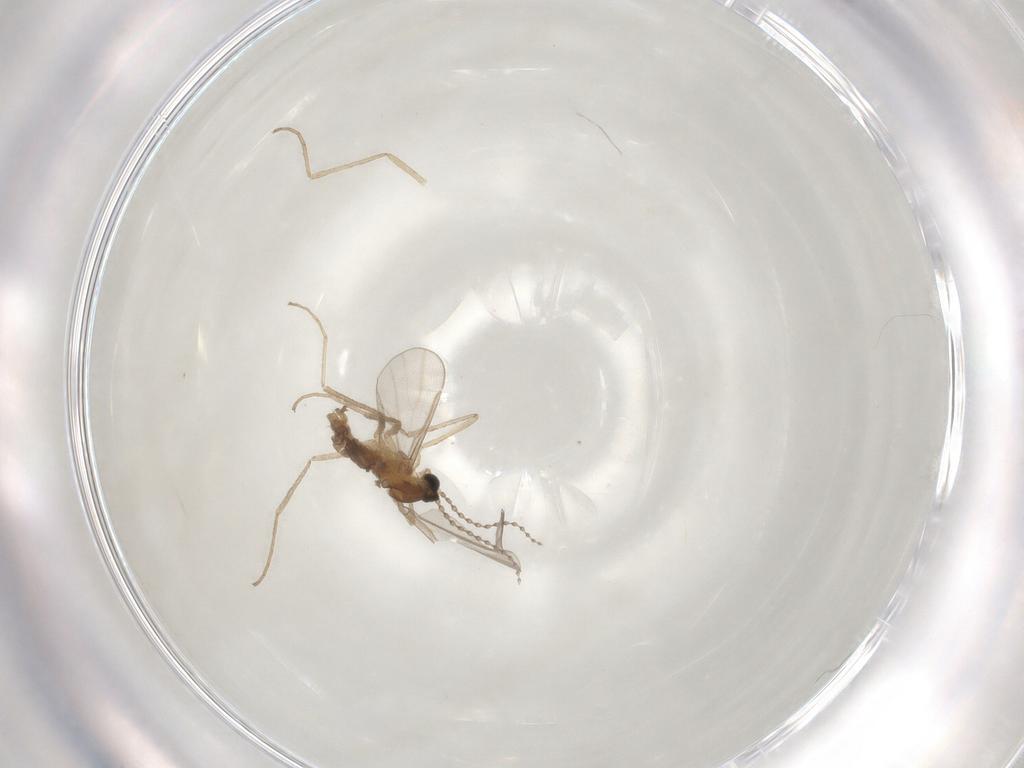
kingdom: Animalia
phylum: Arthropoda
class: Insecta
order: Diptera
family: Cecidomyiidae
